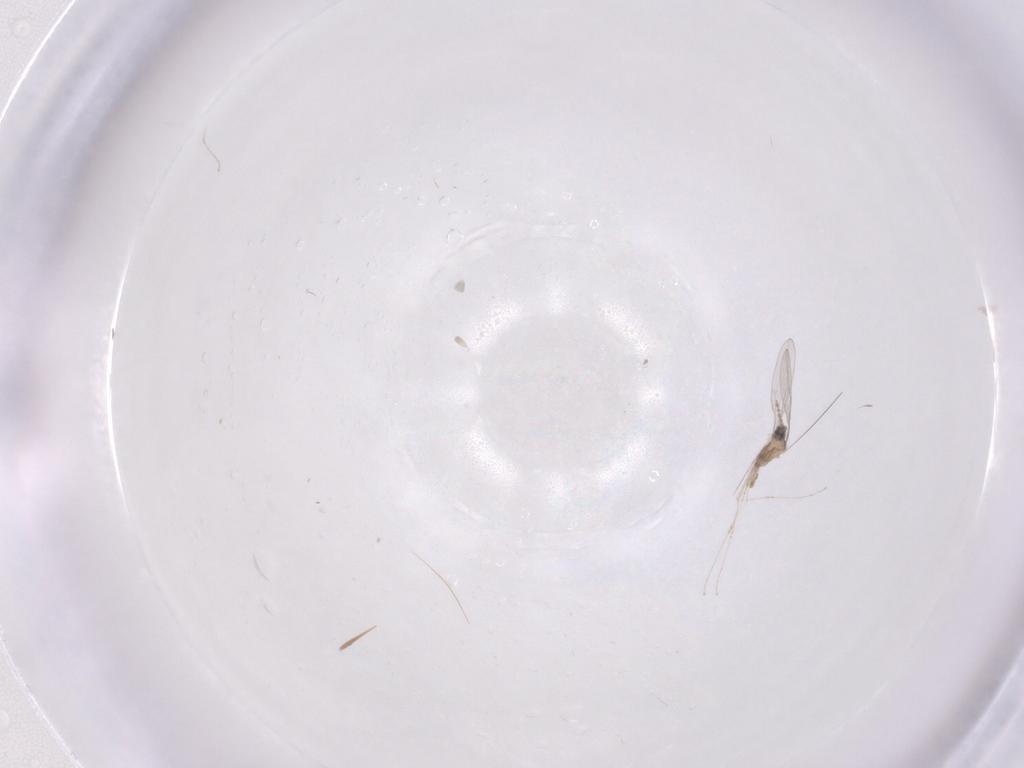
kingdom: Animalia
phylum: Arthropoda
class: Insecta
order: Diptera
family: Cecidomyiidae
